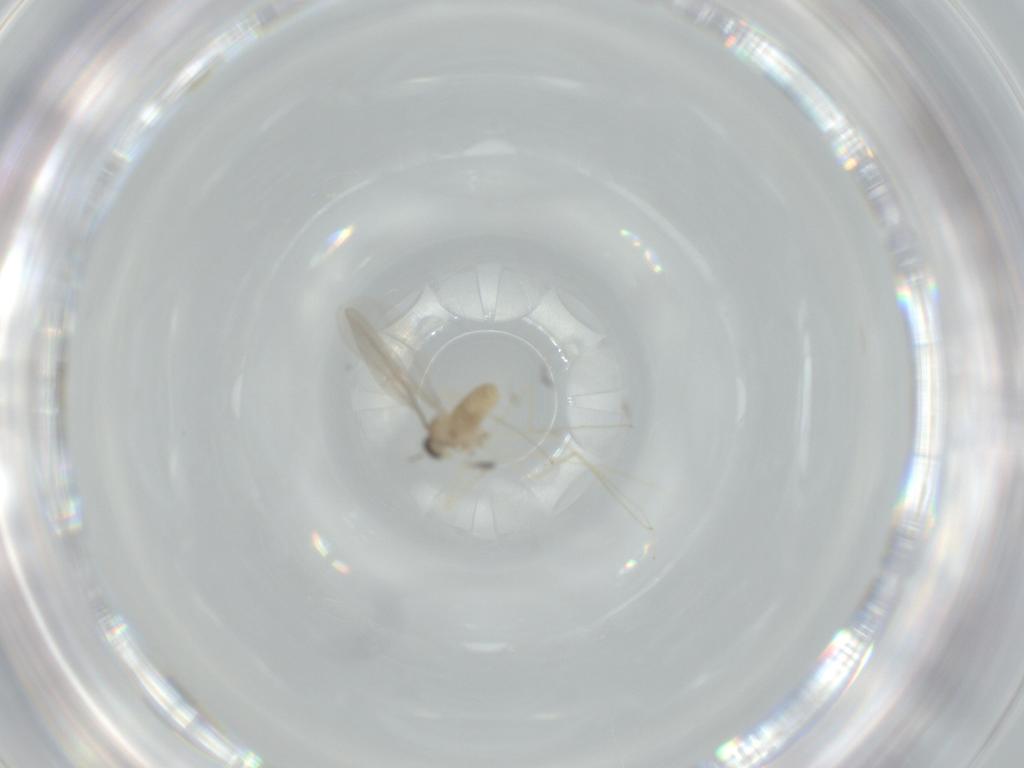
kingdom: Animalia
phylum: Arthropoda
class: Insecta
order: Diptera
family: Cecidomyiidae
